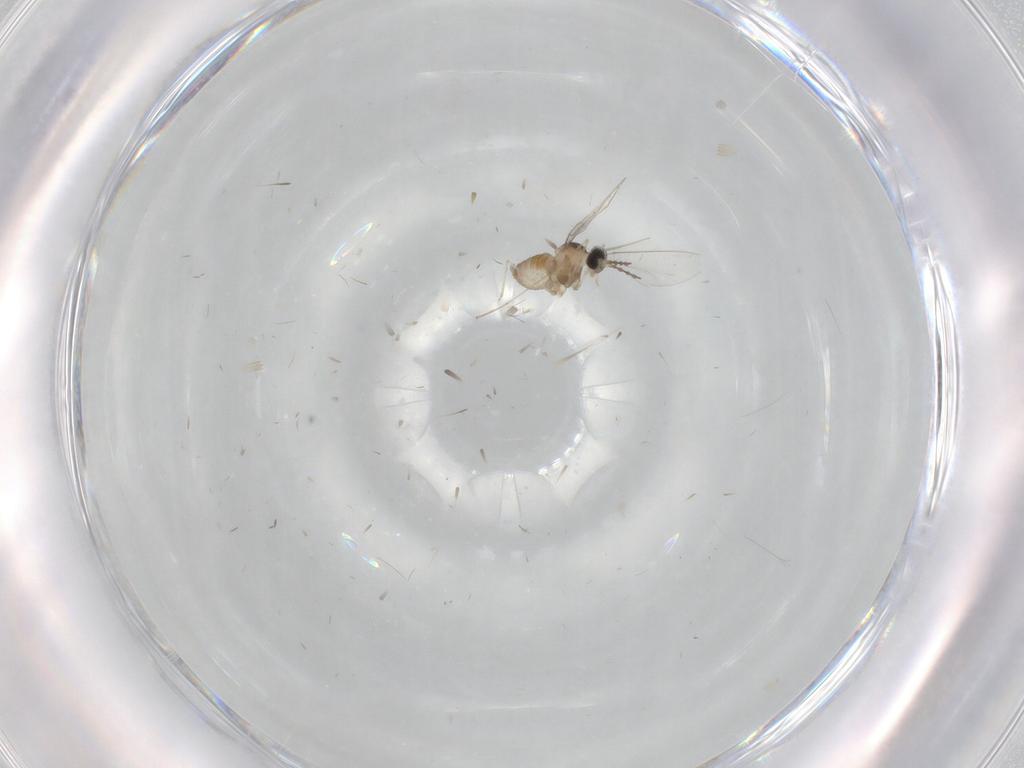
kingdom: Animalia
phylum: Arthropoda
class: Insecta
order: Diptera
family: Cecidomyiidae
